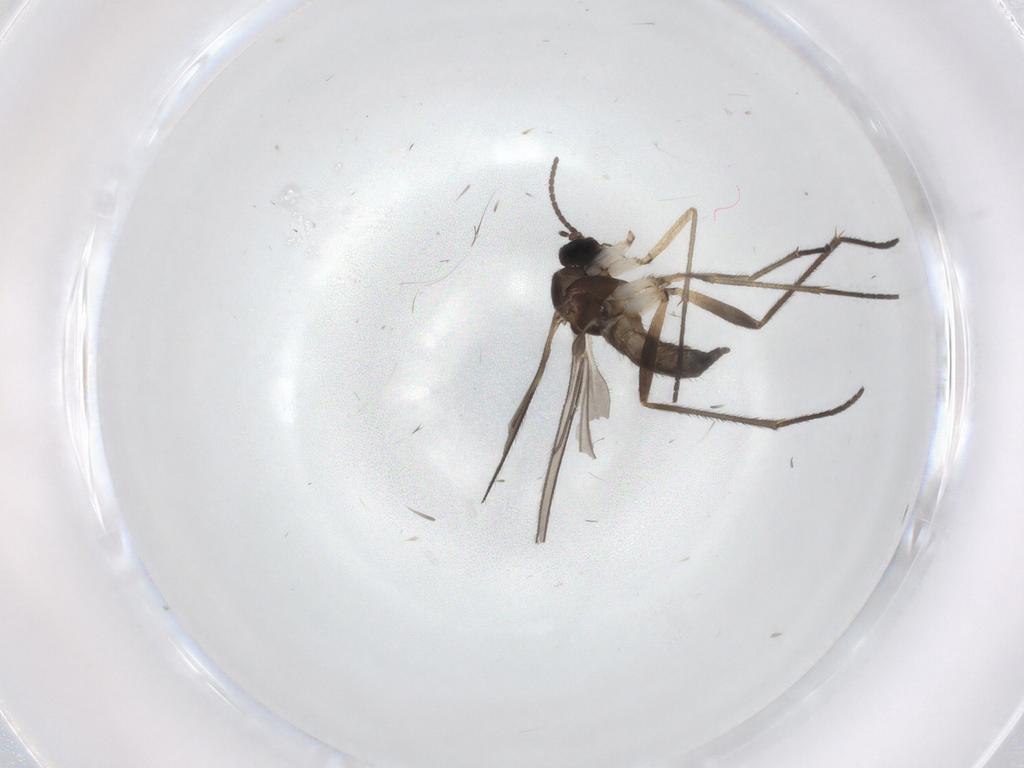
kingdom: Animalia
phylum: Arthropoda
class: Insecta
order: Diptera
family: Sciaridae
